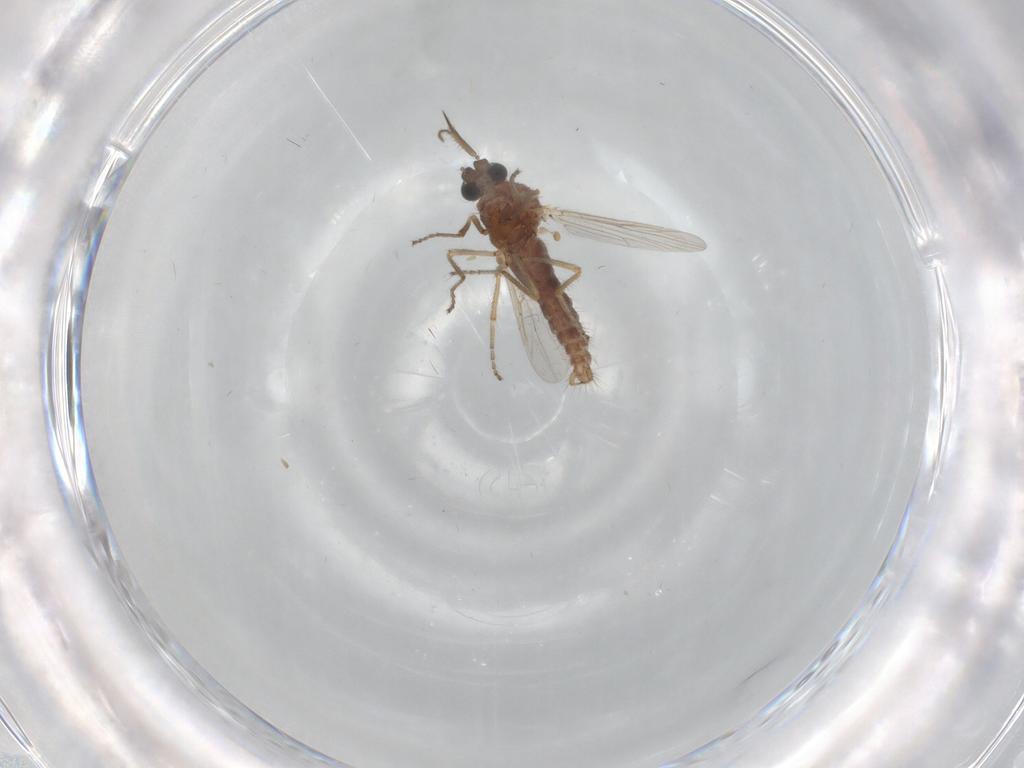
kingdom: Animalia
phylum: Arthropoda
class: Insecta
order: Diptera
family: Ceratopogonidae
